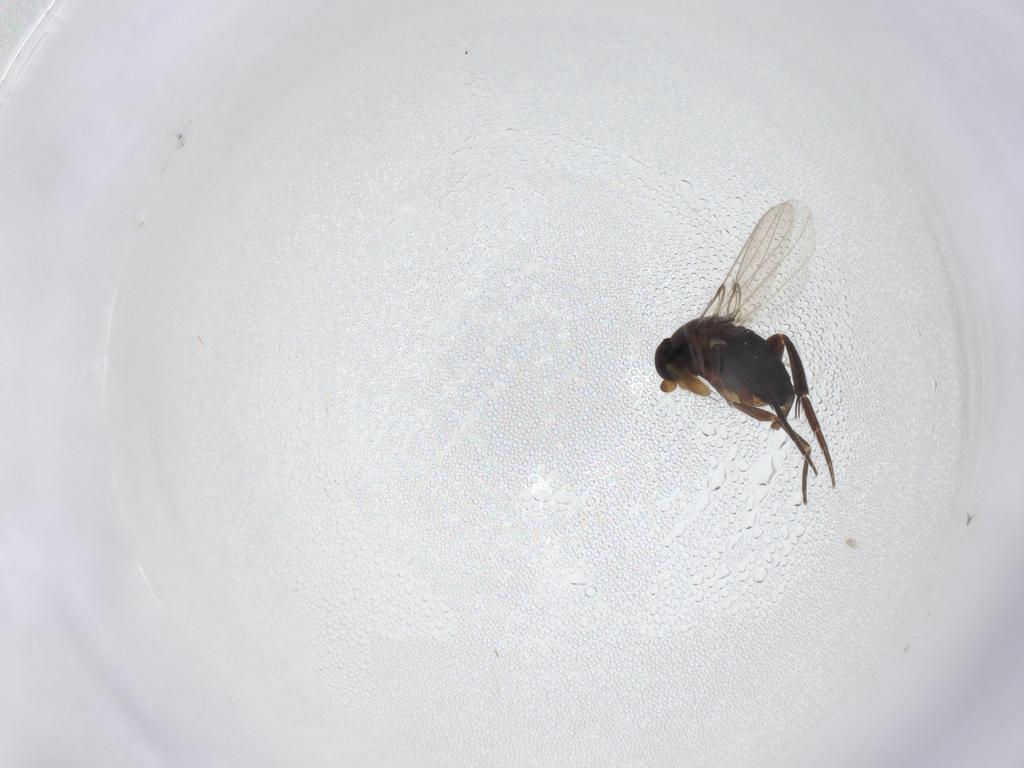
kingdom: Animalia
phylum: Arthropoda
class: Insecta
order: Diptera
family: Phoridae
